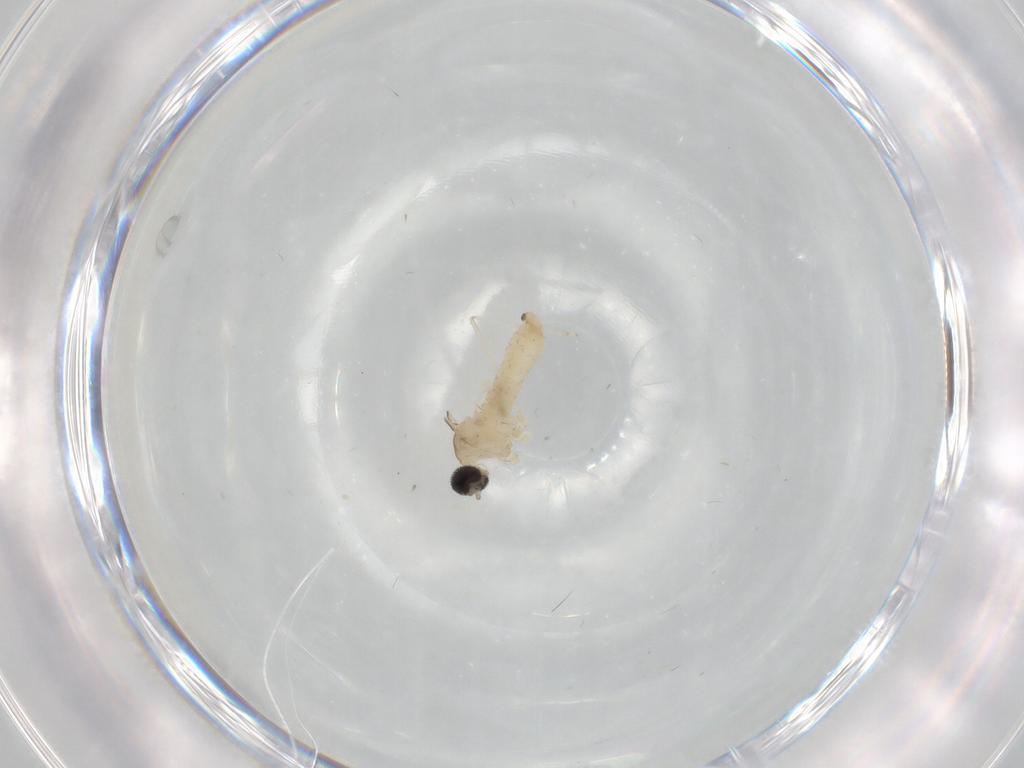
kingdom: Animalia
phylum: Arthropoda
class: Insecta
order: Diptera
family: Cecidomyiidae
